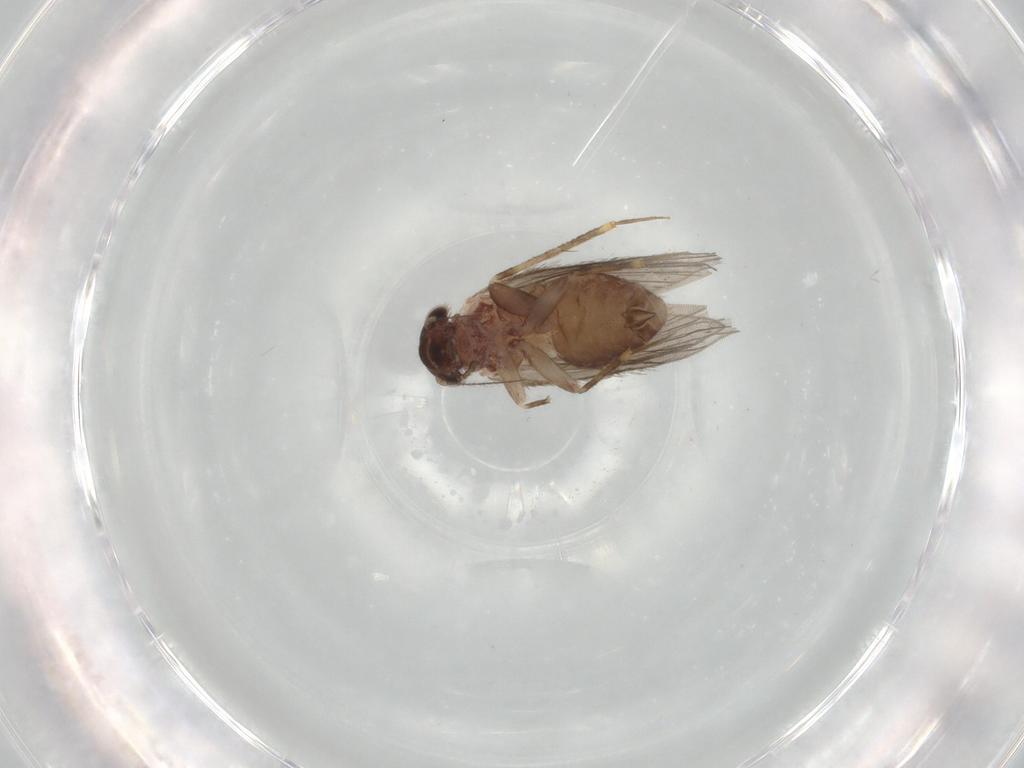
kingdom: Animalia
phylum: Arthropoda
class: Insecta
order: Psocodea
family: Lepidopsocidae
